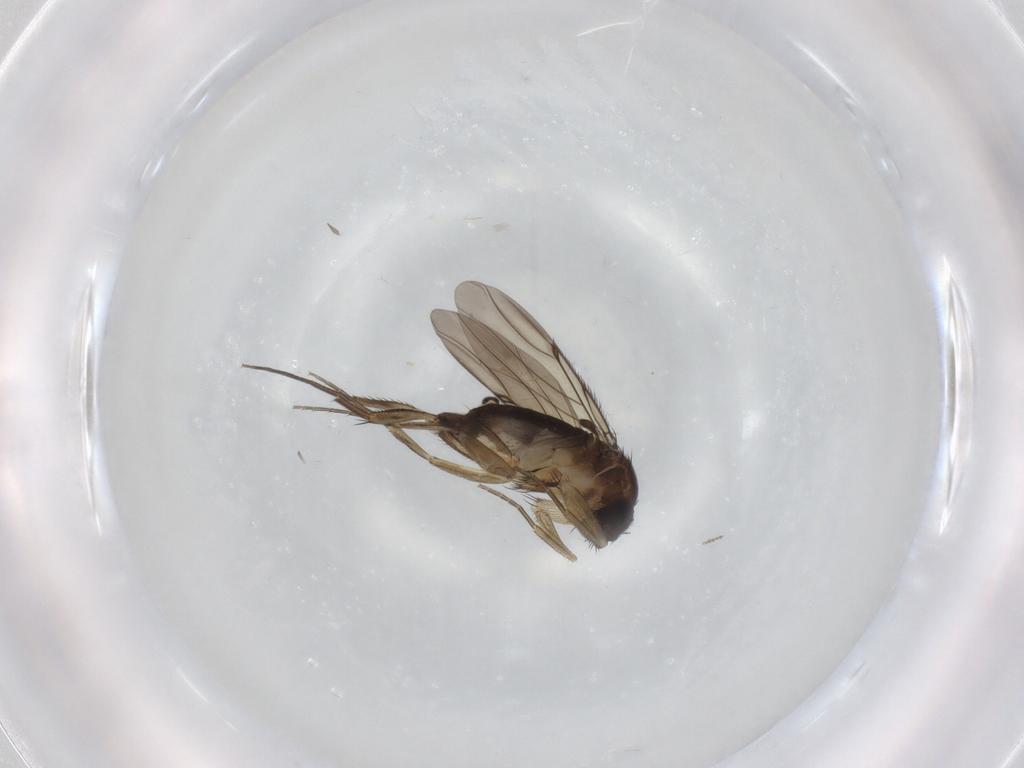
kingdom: Animalia
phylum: Arthropoda
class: Insecta
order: Diptera
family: Phoridae
